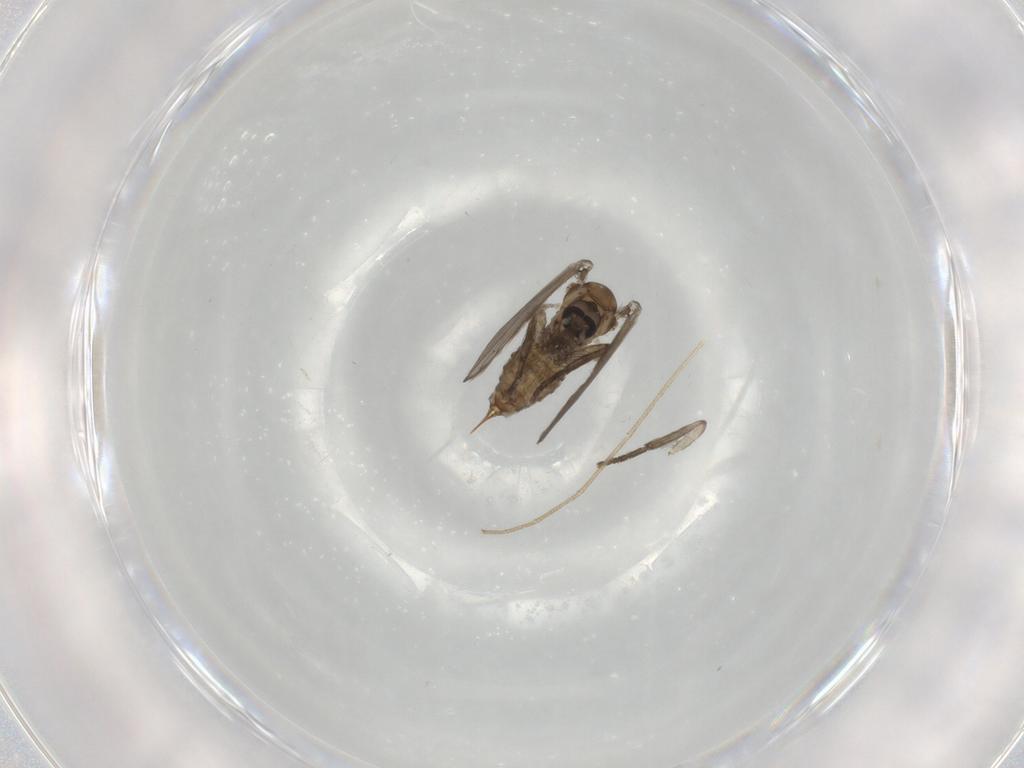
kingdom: Animalia
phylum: Arthropoda
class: Insecta
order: Diptera
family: Psychodidae
